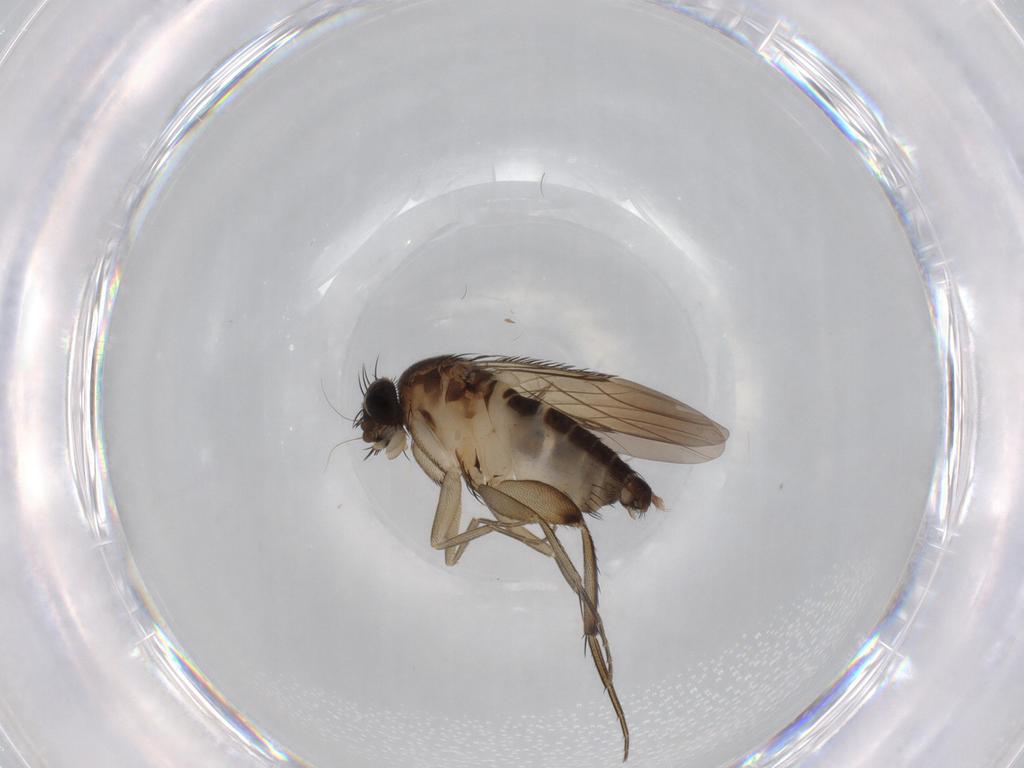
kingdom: Animalia
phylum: Arthropoda
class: Insecta
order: Diptera
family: Phoridae
